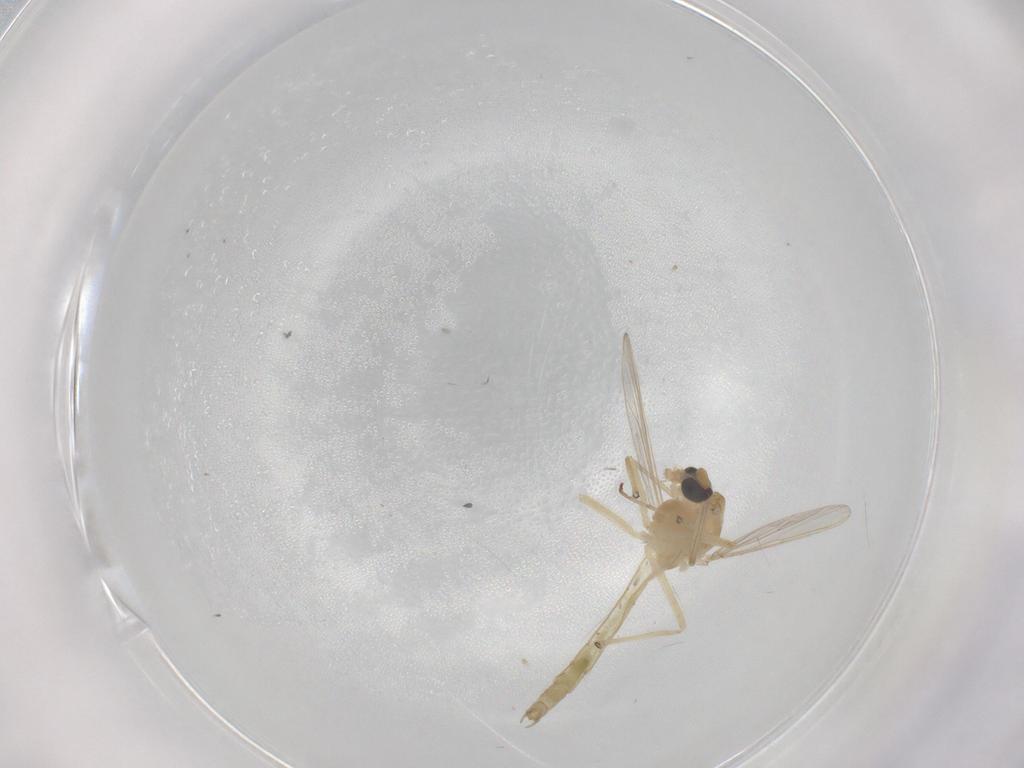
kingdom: Animalia
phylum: Arthropoda
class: Insecta
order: Diptera
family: Chironomidae
